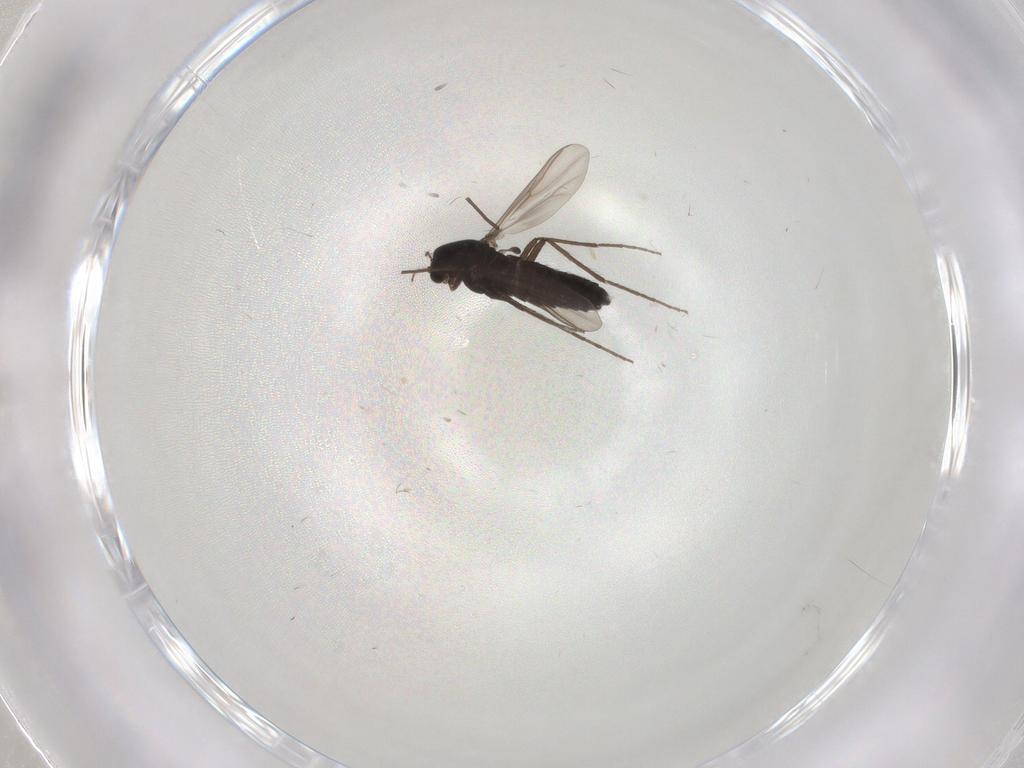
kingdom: Animalia
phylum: Arthropoda
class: Insecta
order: Diptera
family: Chironomidae
